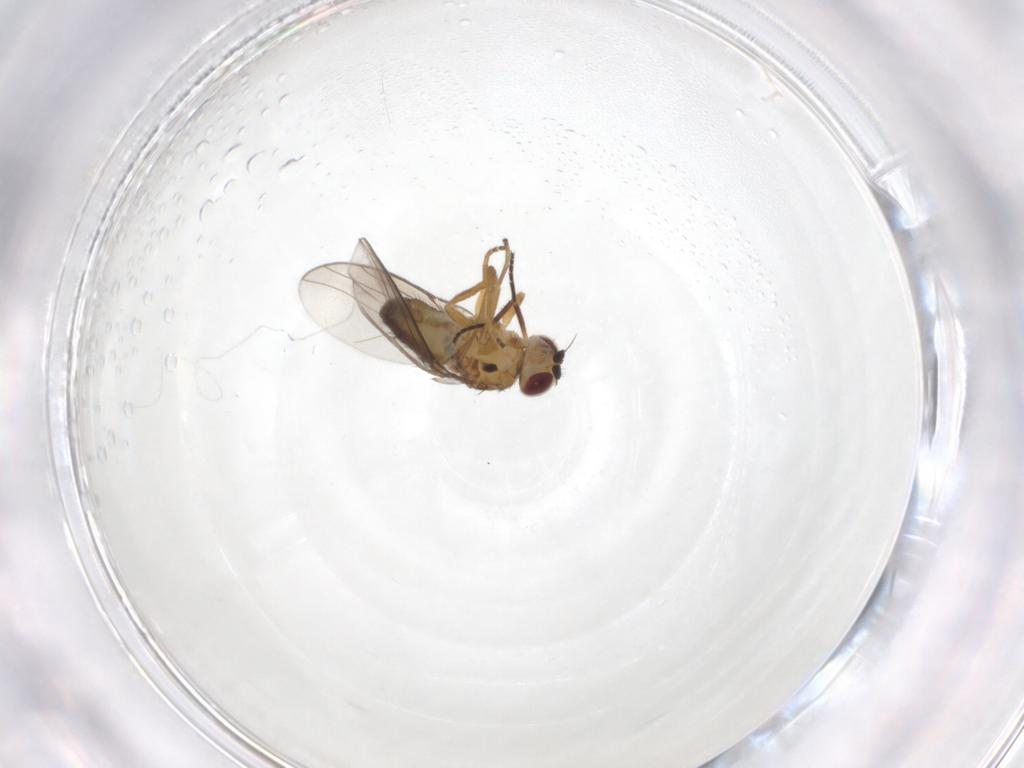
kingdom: Animalia
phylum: Arthropoda
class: Insecta
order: Diptera
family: Chloropidae
